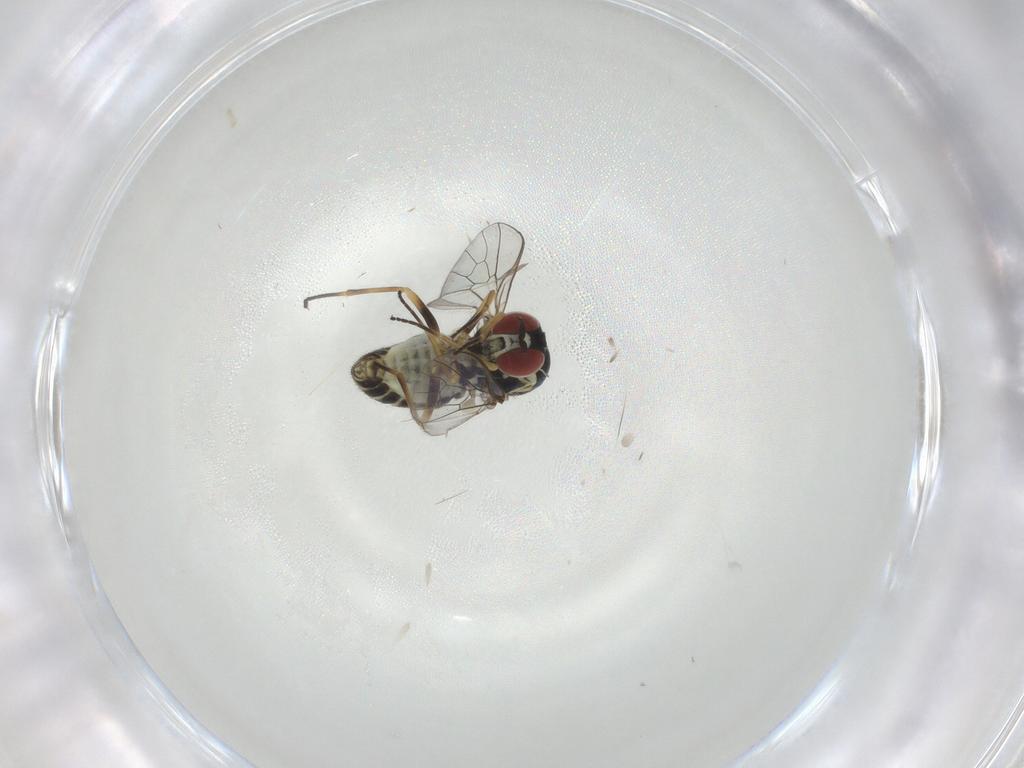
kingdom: Animalia
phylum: Arthropoda
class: Insecta
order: Diptera
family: Bombyliidae
